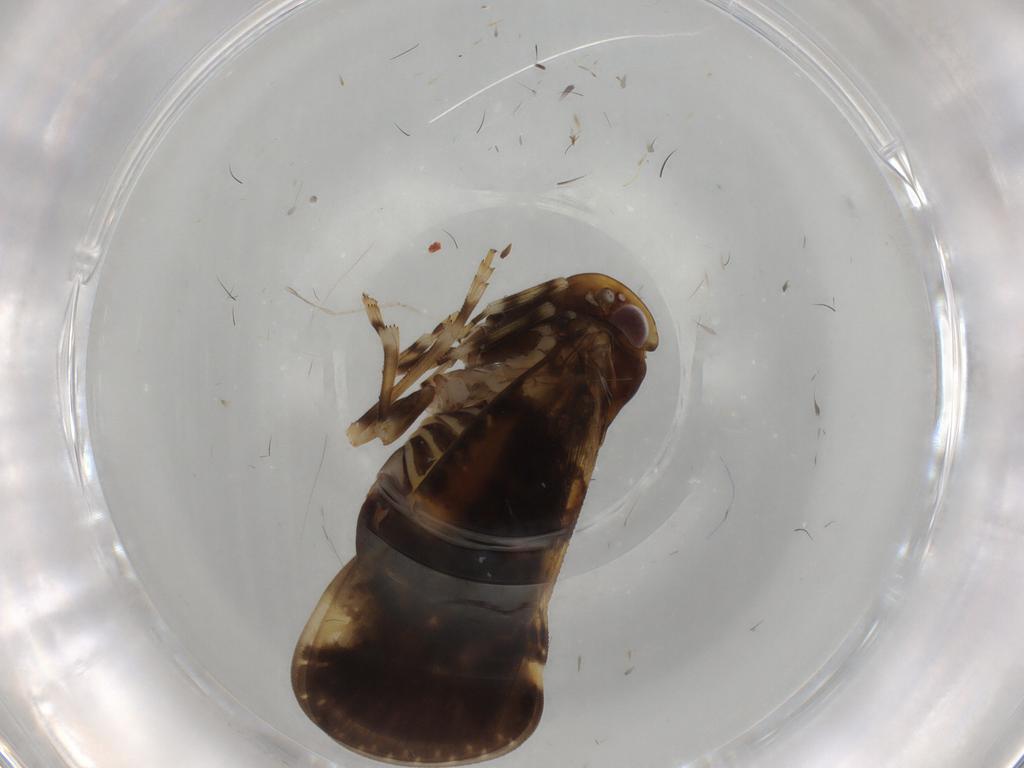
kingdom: Animalia
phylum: Arthropoda
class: Insecta
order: Hemiptera
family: Cixiidae
